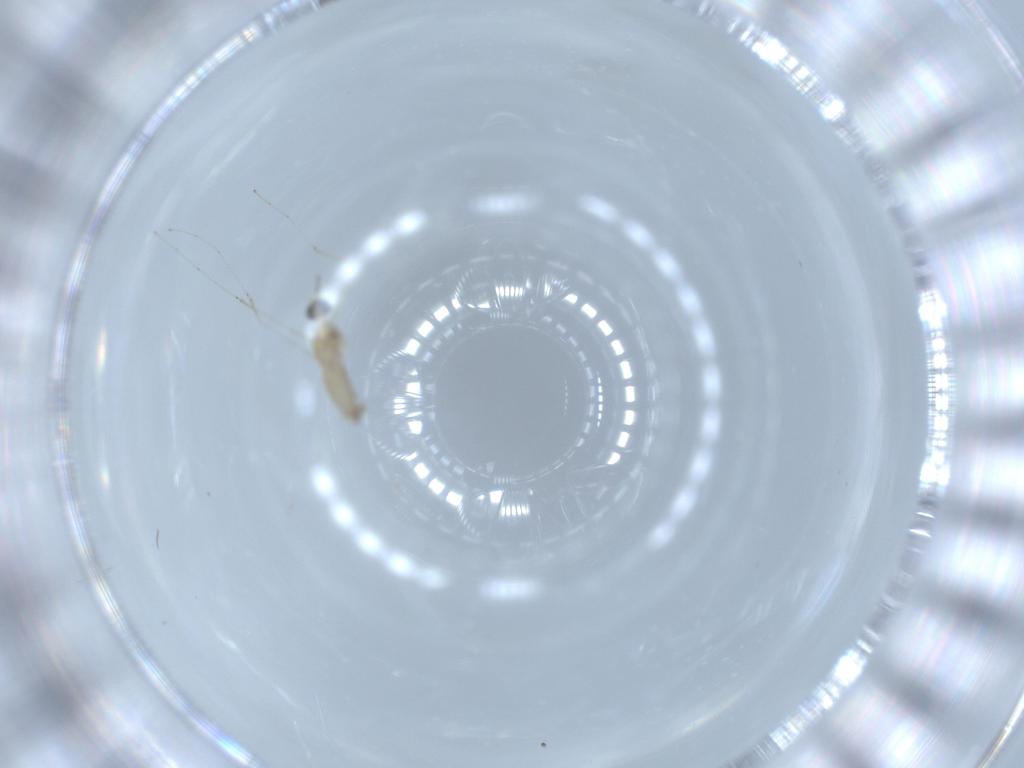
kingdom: Animalia
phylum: Arthropoda
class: Insecta
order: Diptera
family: Cecidomyiidae
